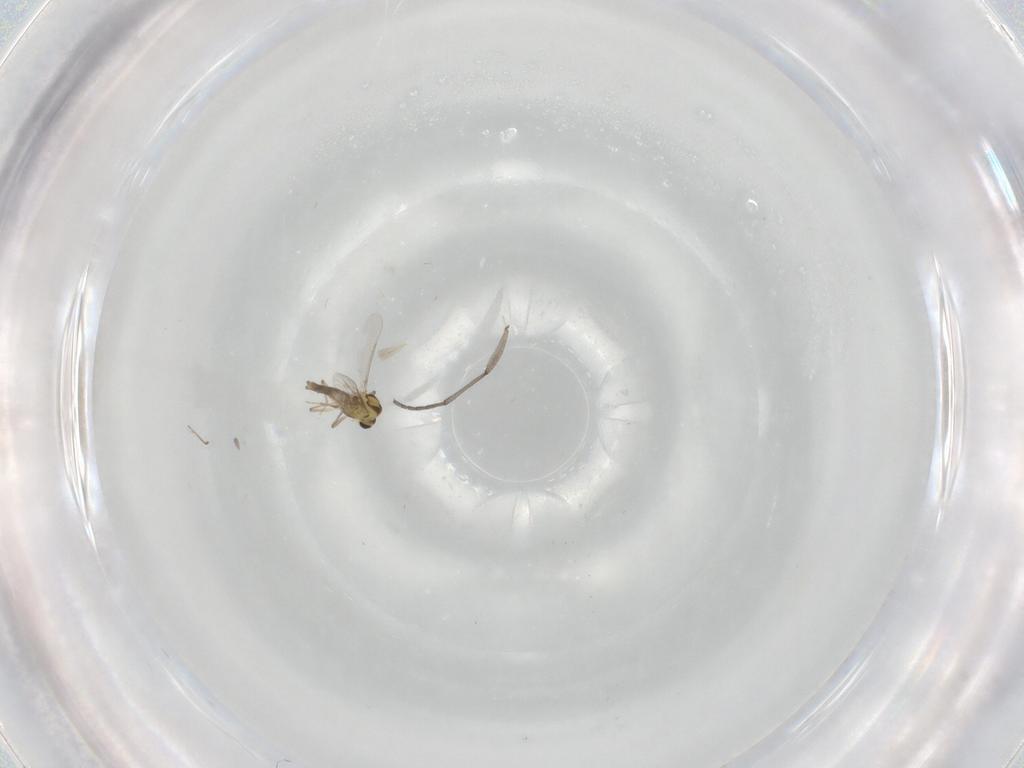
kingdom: Animalia
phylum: Arthropoda
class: Insecta
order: Diptera
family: Chironomidae
